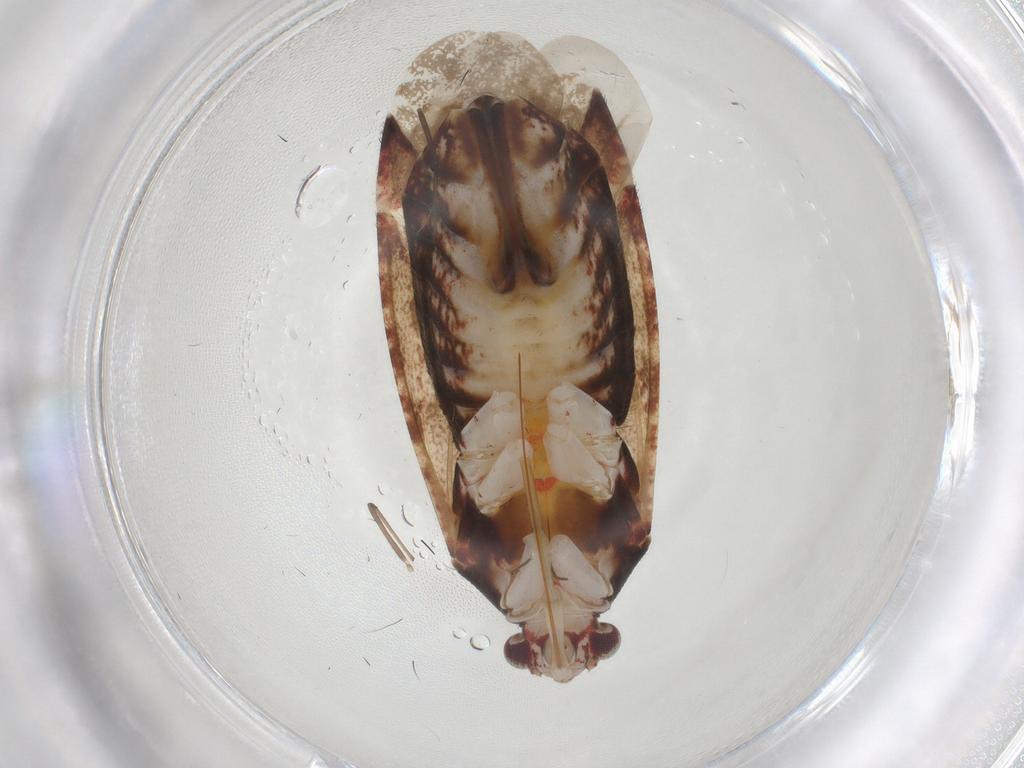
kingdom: Animalia
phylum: Arthropoda
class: Insecta
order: Hemiptera
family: Miridae
